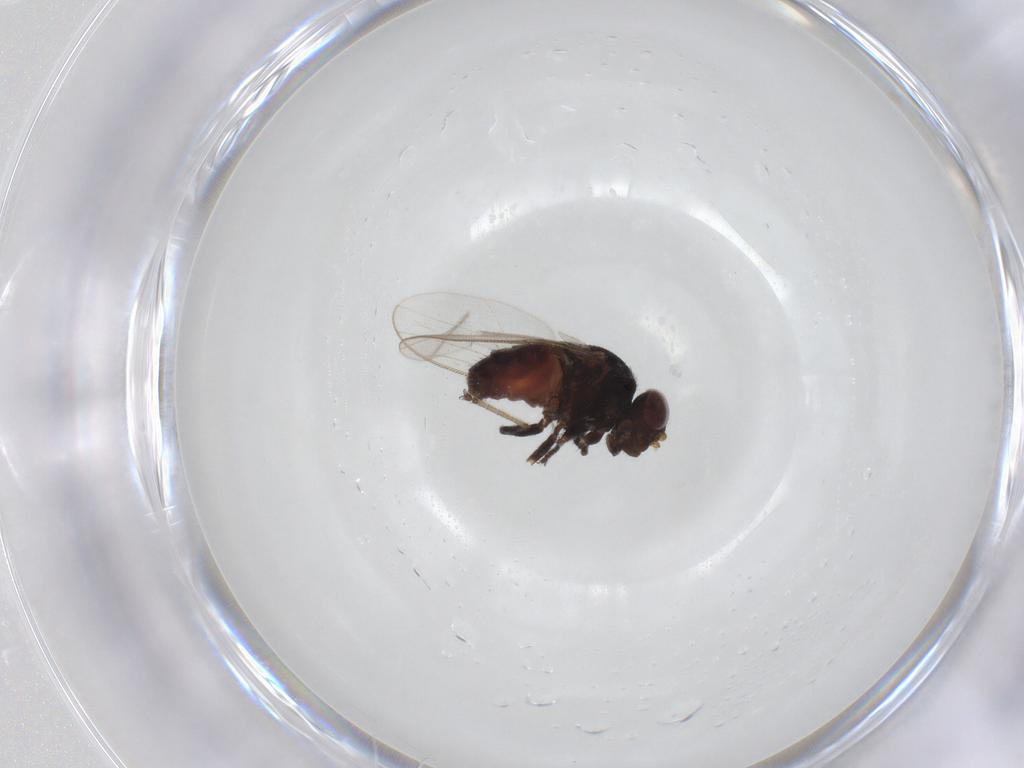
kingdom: Animalia
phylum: Arthropoda
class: Insecta
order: Diptera
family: Chloropidae
